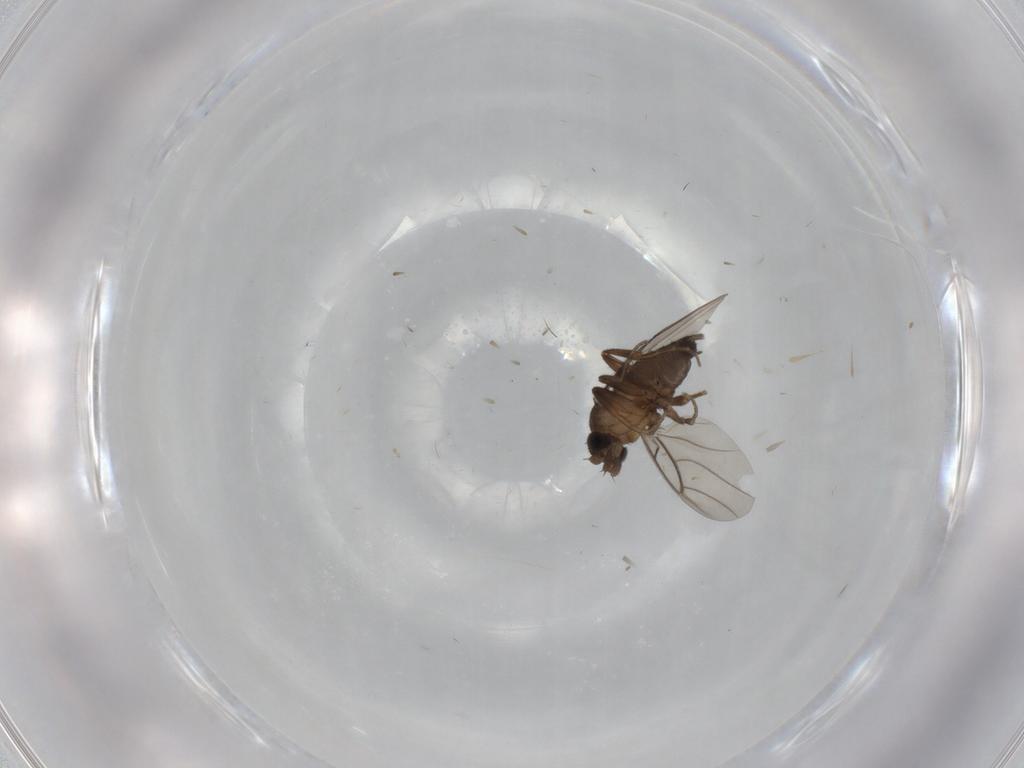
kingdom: Animalia
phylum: Arthropoda
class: Insecta
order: Diptera
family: Phoridae
